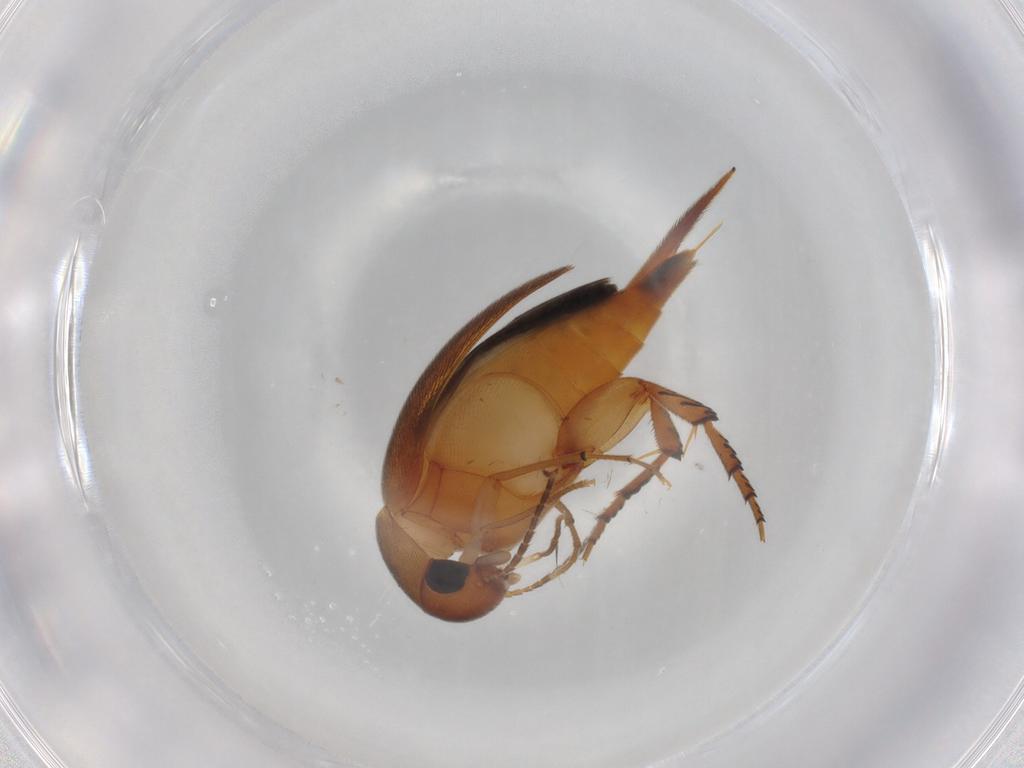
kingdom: Animalia
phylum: Arthropoda
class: Insecta
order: Coleoptera
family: Mordellidae
